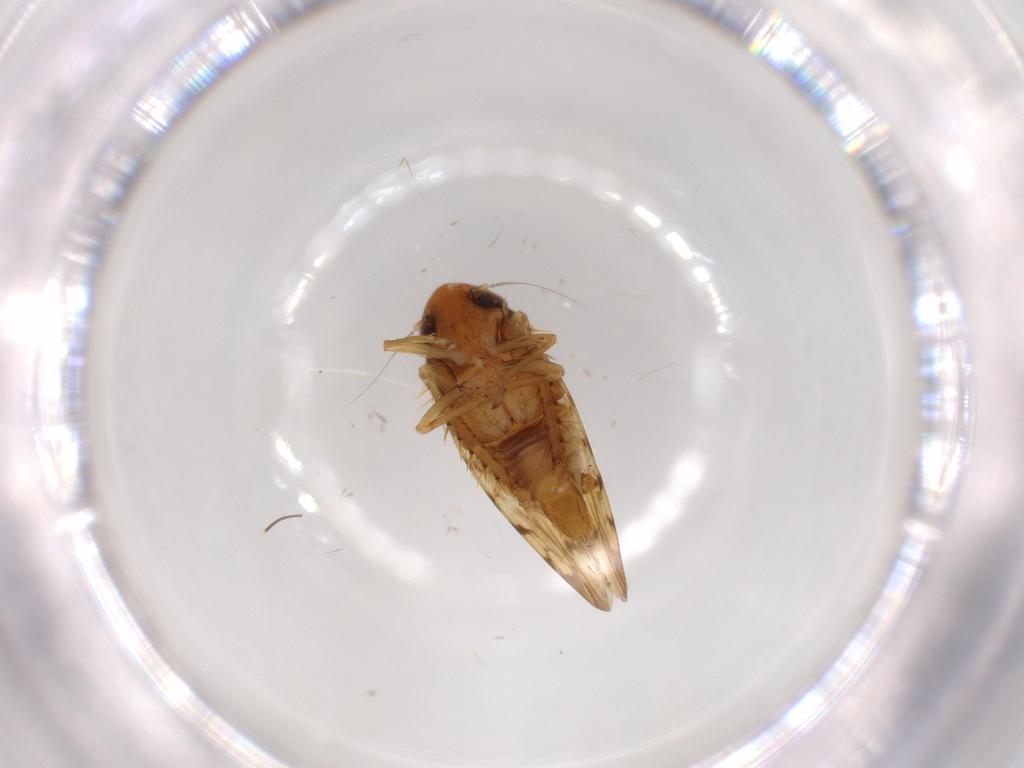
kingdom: Animalia
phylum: Arthropoda
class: Insecta
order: Hemiptera
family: Cicadellidae
